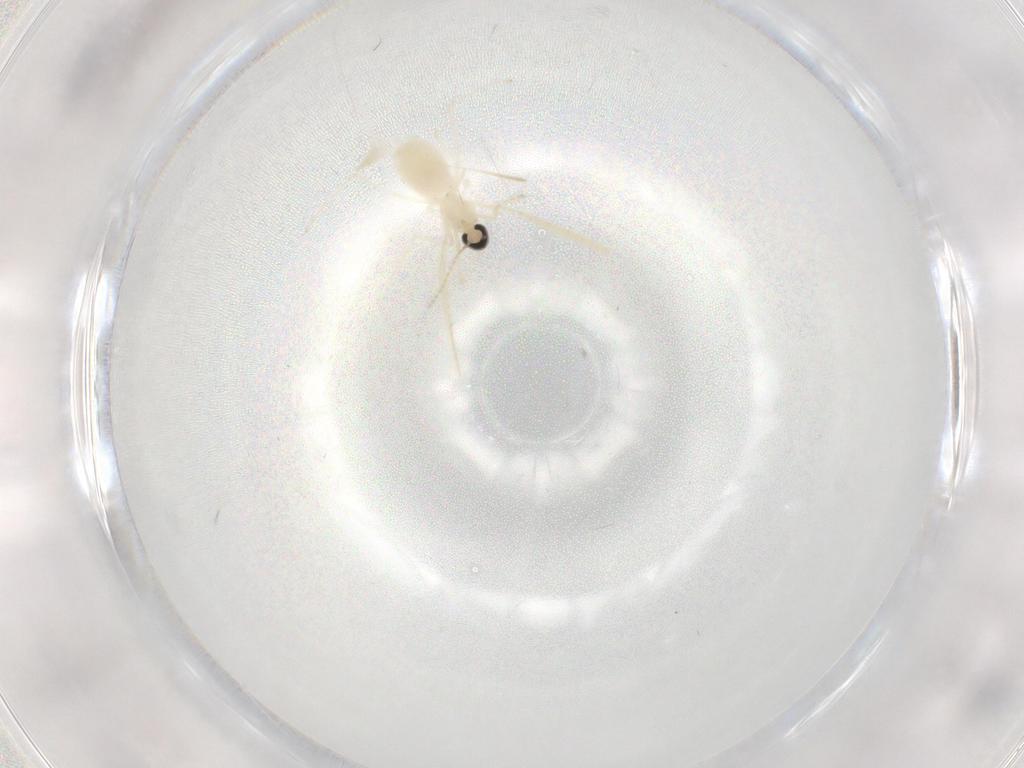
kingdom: Animalia
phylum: Arthropoda
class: Insecta
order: Diptera
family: Cecidomyiidae
